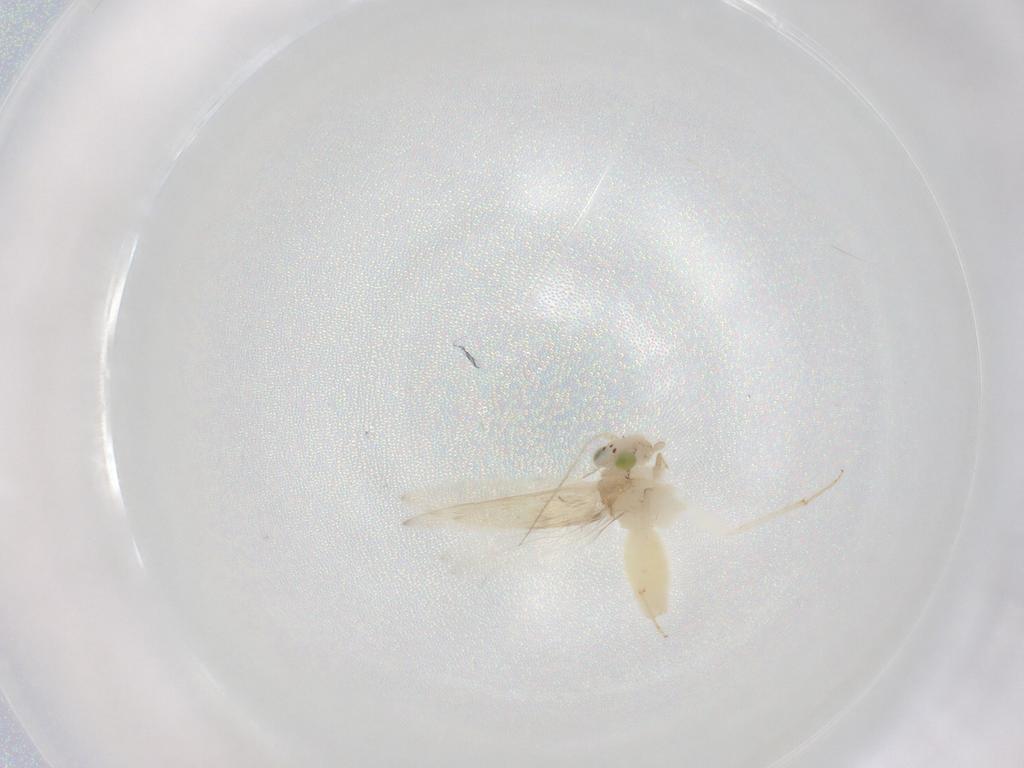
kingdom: Animalia
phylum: Arthropoda
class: Insecta
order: Psocodea
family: Lepidopsocidae
